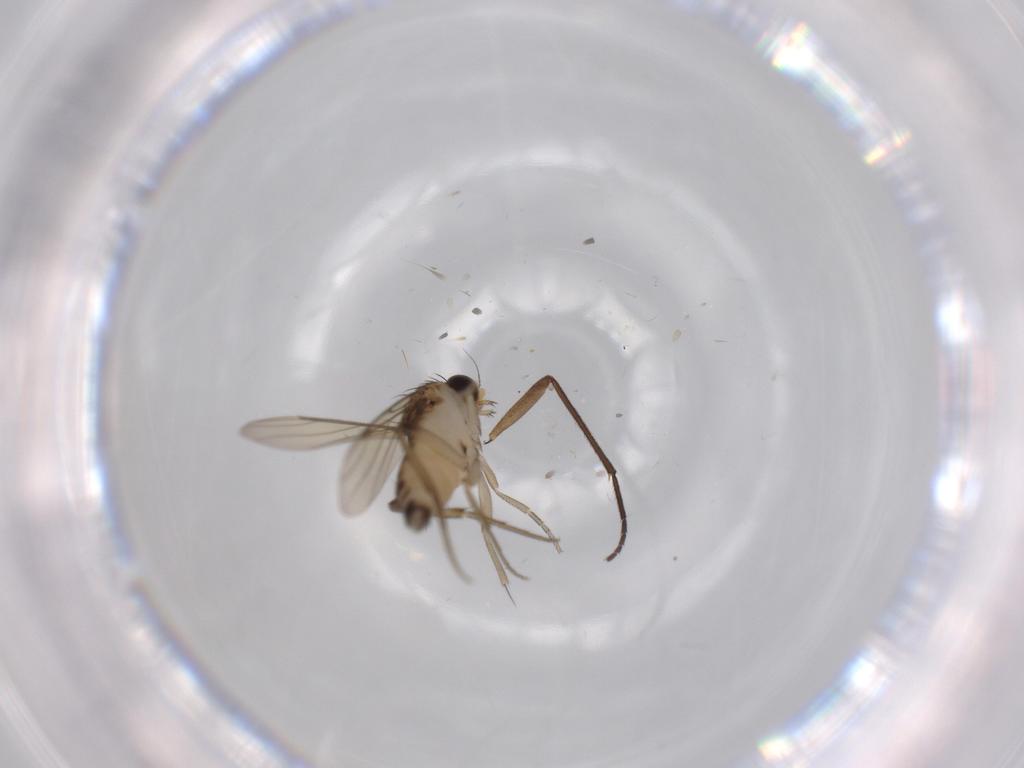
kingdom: Animalia
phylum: Arthropoda
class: Insecta
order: Diptera
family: Phoridae
